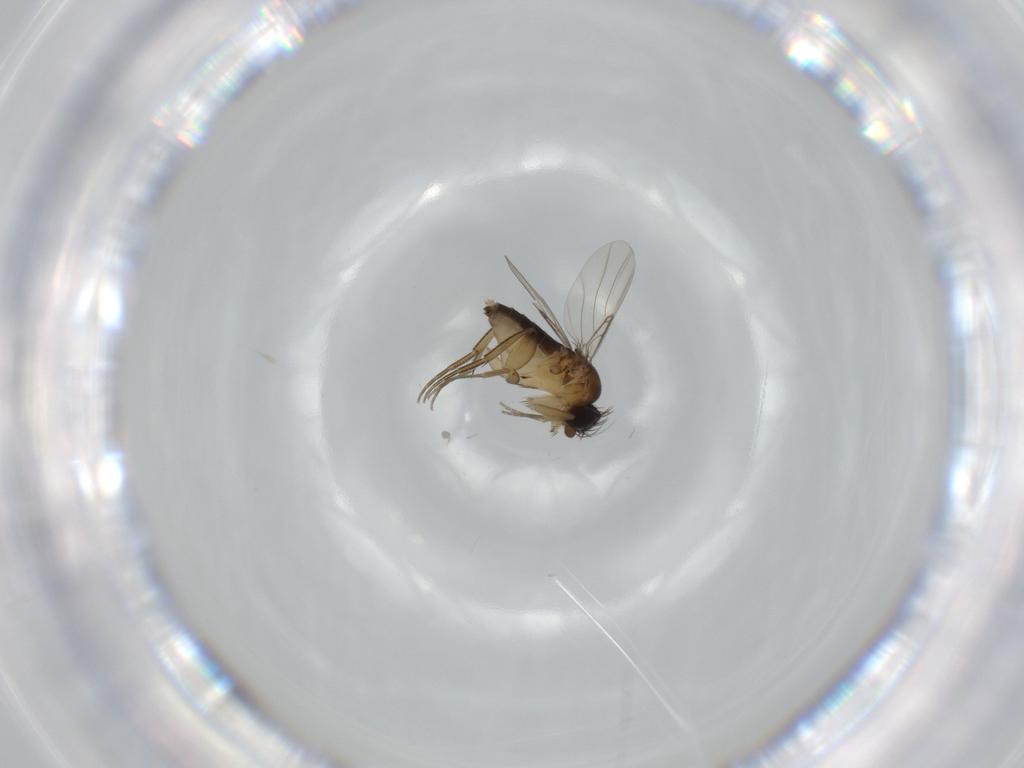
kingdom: Animalia
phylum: Arthropoda
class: Insecta
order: Diptera
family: Phoridae
